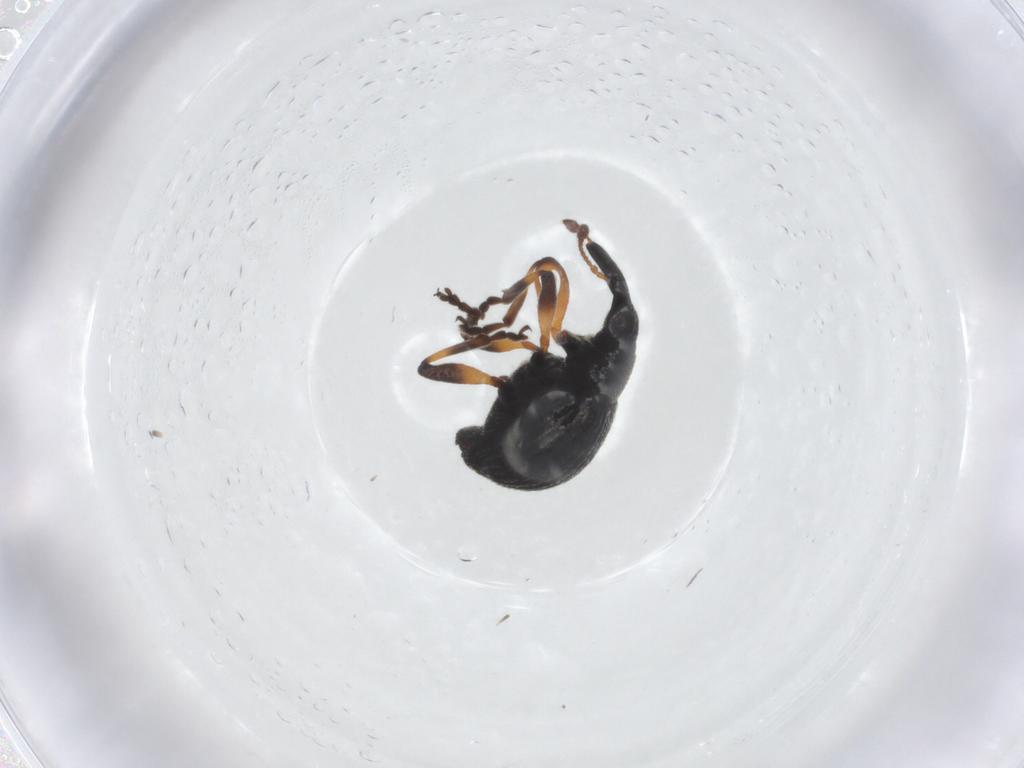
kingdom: Animalia
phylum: Arthropoda
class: Insecta
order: Coleoptera
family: Brentidae
